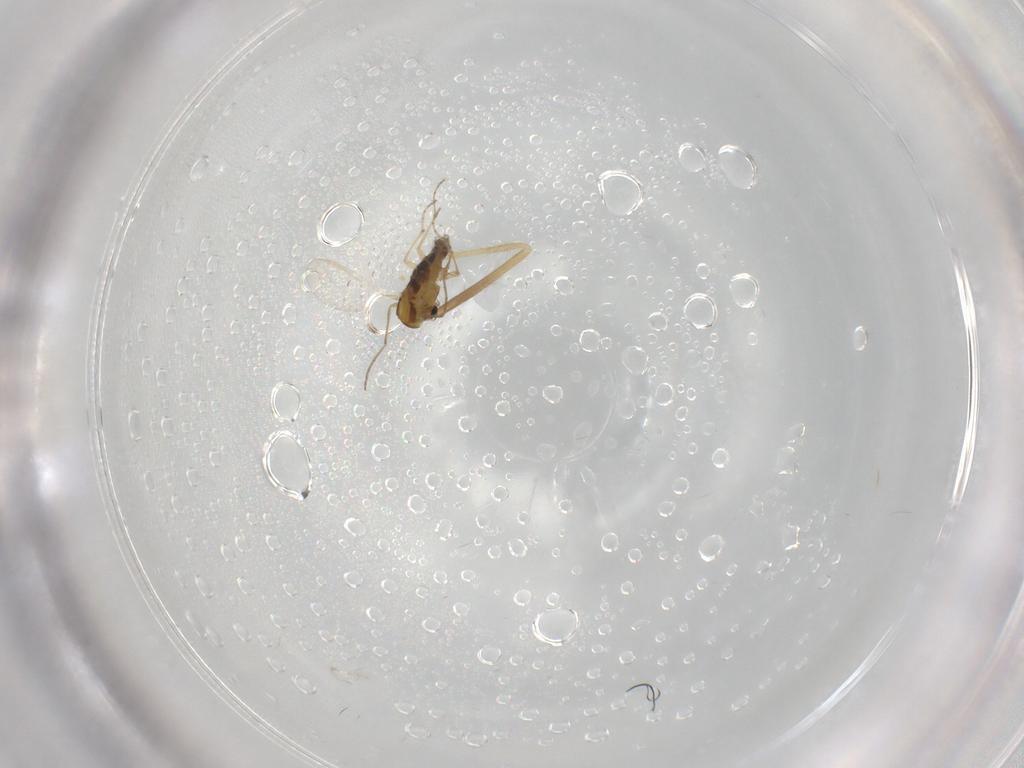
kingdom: Animalia
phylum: Arthropoda
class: Insecta
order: Diptera
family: Chironomidae
